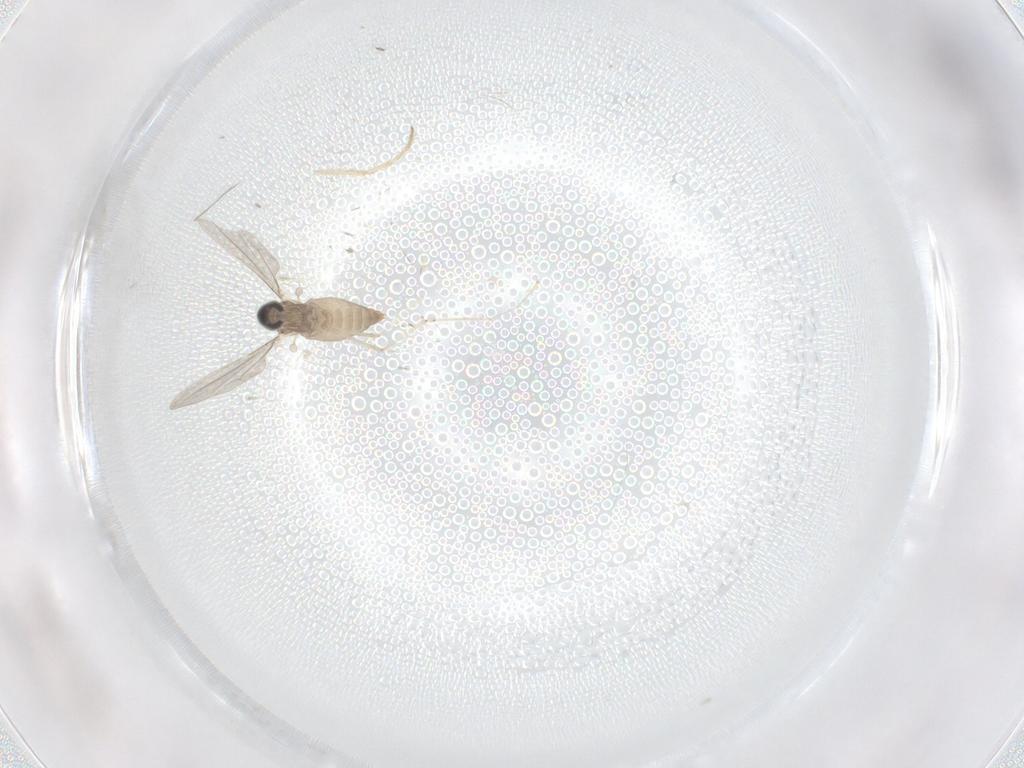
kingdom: Animalia
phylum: Arthropoda
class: Insecta
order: Diptera
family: Cecidomyiidae
